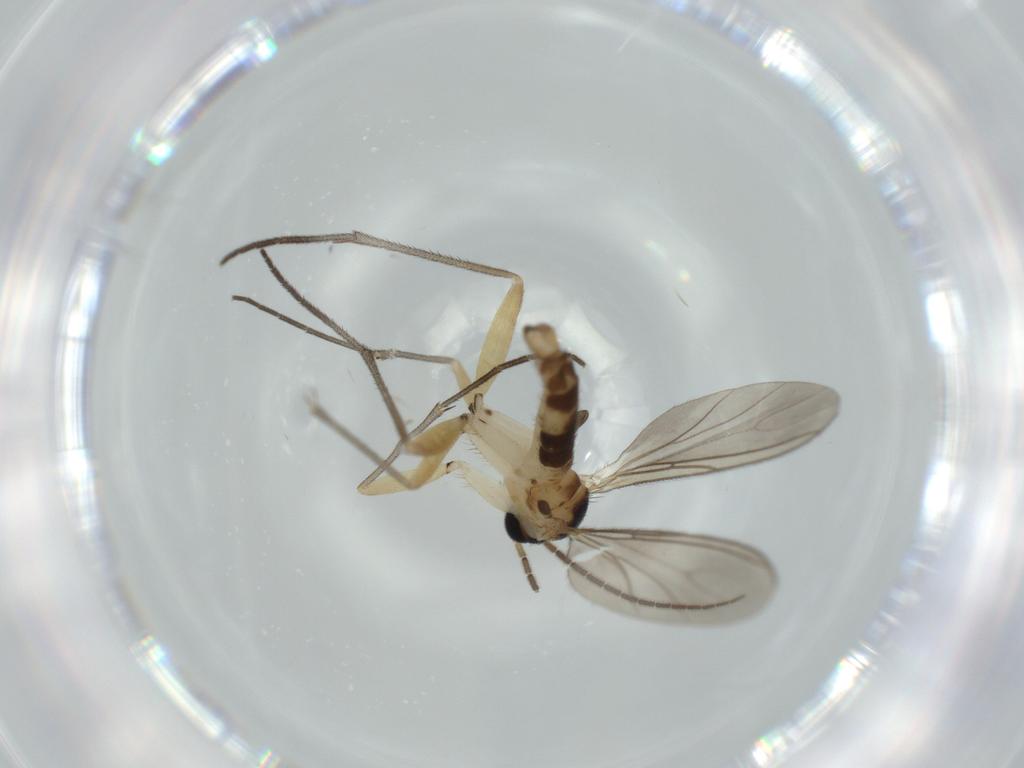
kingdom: Animalia
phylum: Arthropoda
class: Insecta
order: Diptera
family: Sciaridae
